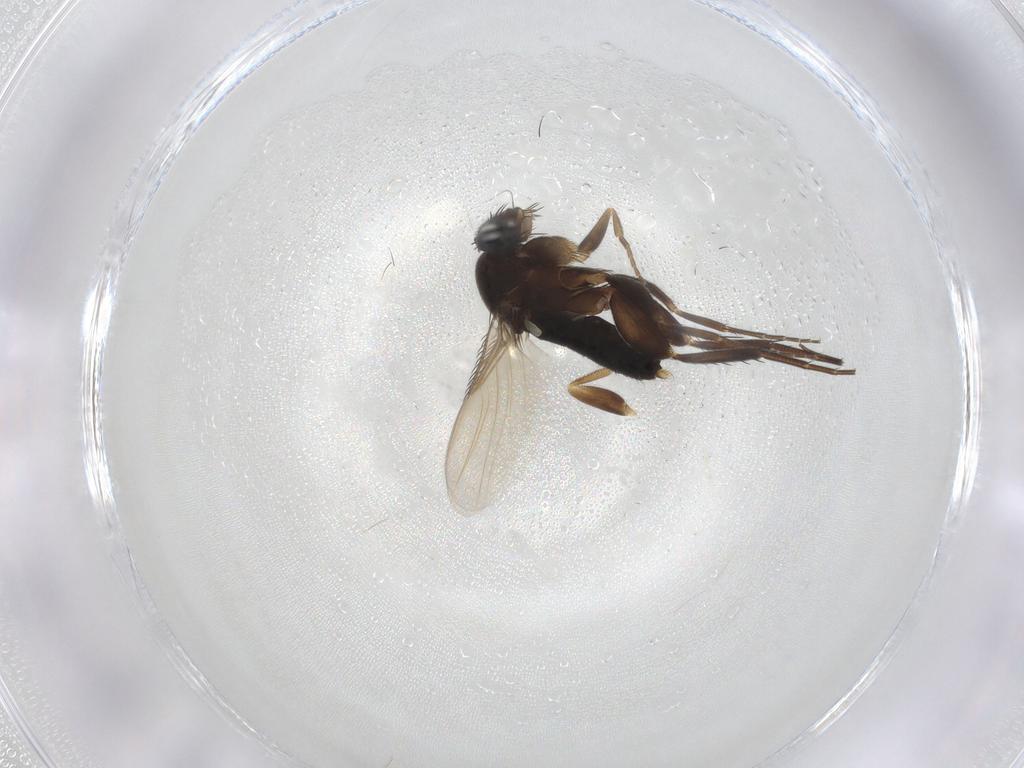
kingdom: Animalia
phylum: Arthropoda
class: Insecta
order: Diptera
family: Phoridae
